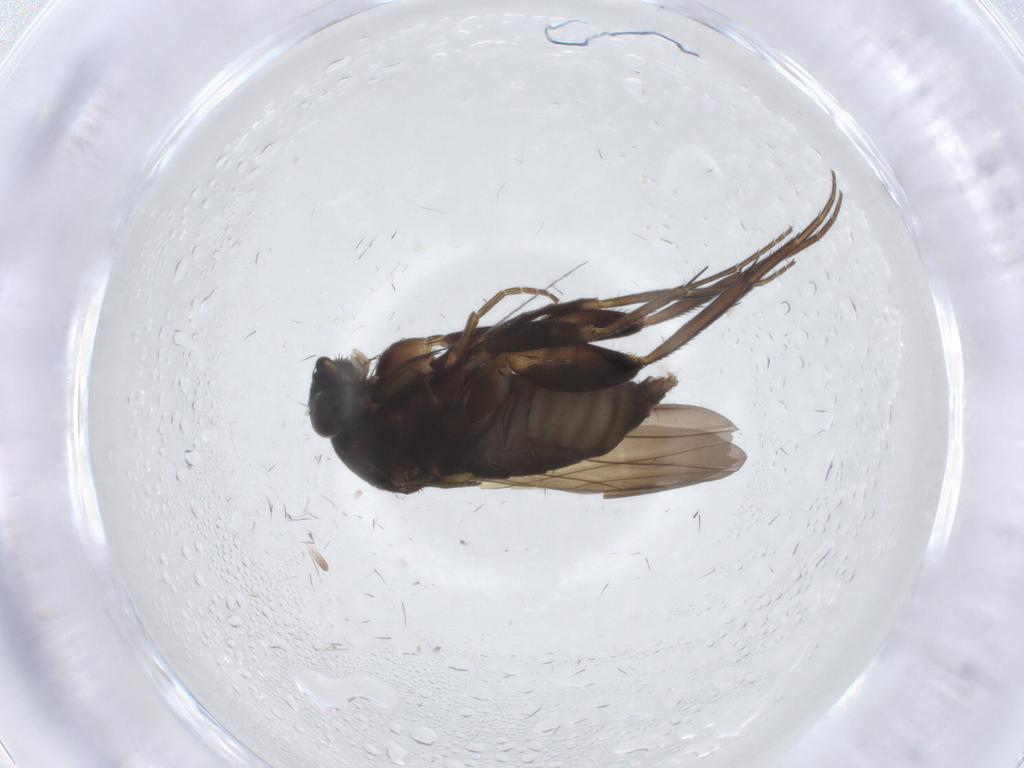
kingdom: Animalia
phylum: Arthropoda
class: Insecta
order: Diptera
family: Phoridae
